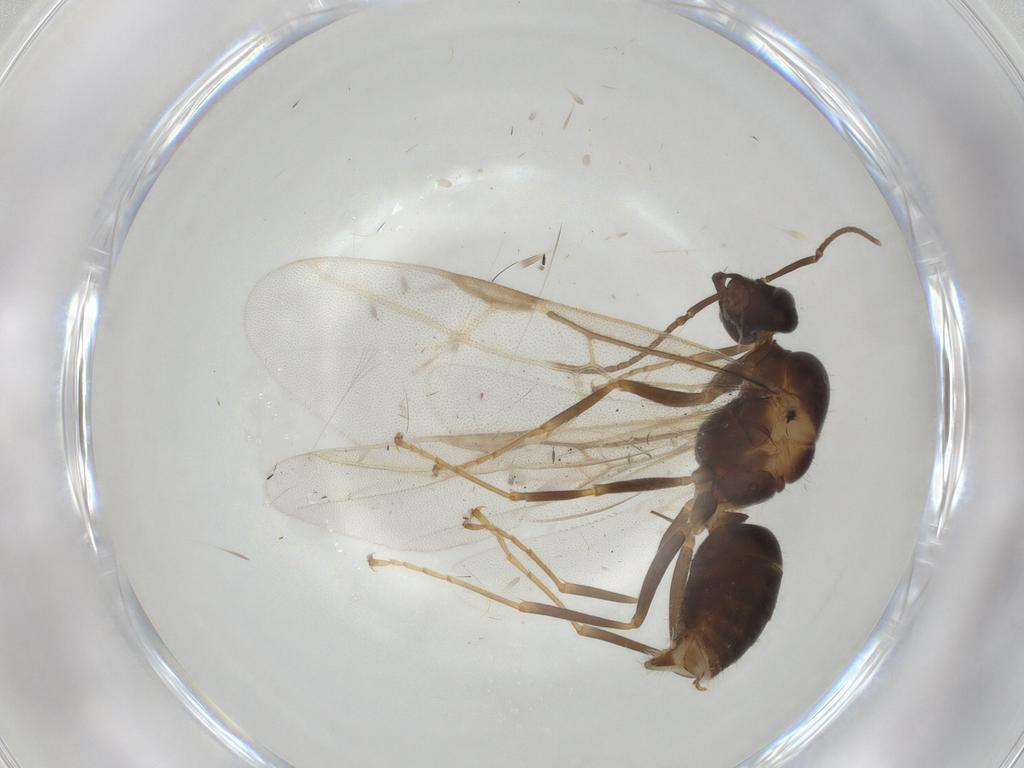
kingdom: Animalia
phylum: Arthropoda
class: Insecta
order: Hymenoptera
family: Formicidae
